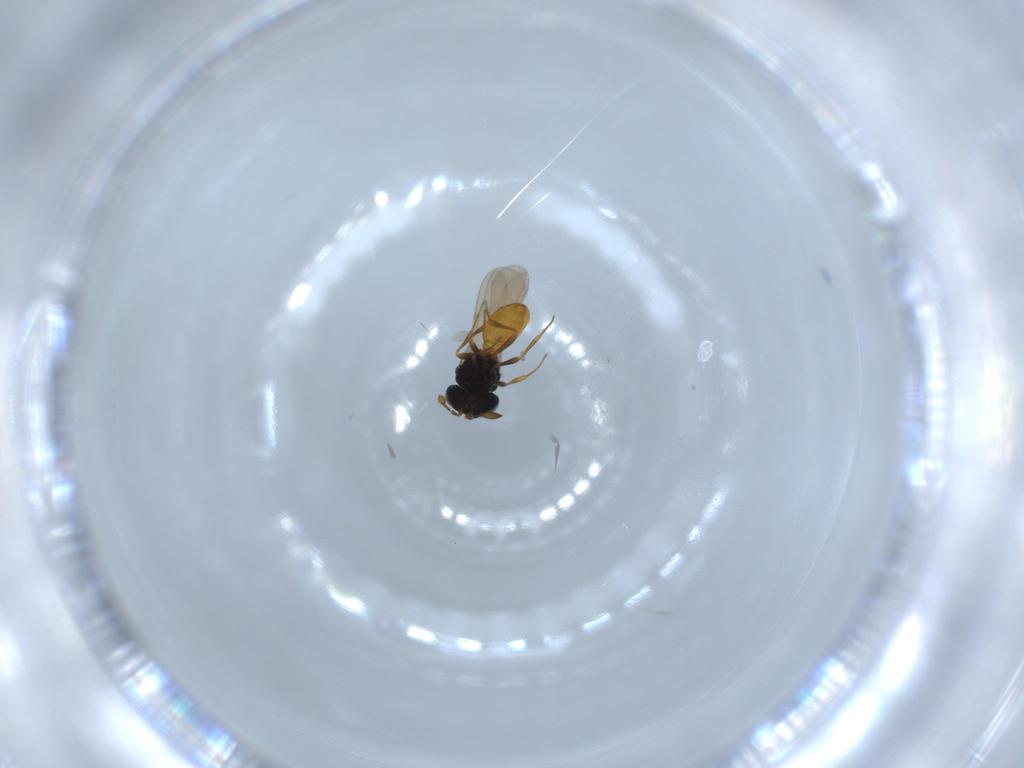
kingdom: Animalia
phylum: Arthropoda
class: Insecta
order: Hymenoptera
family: Scelionidae
